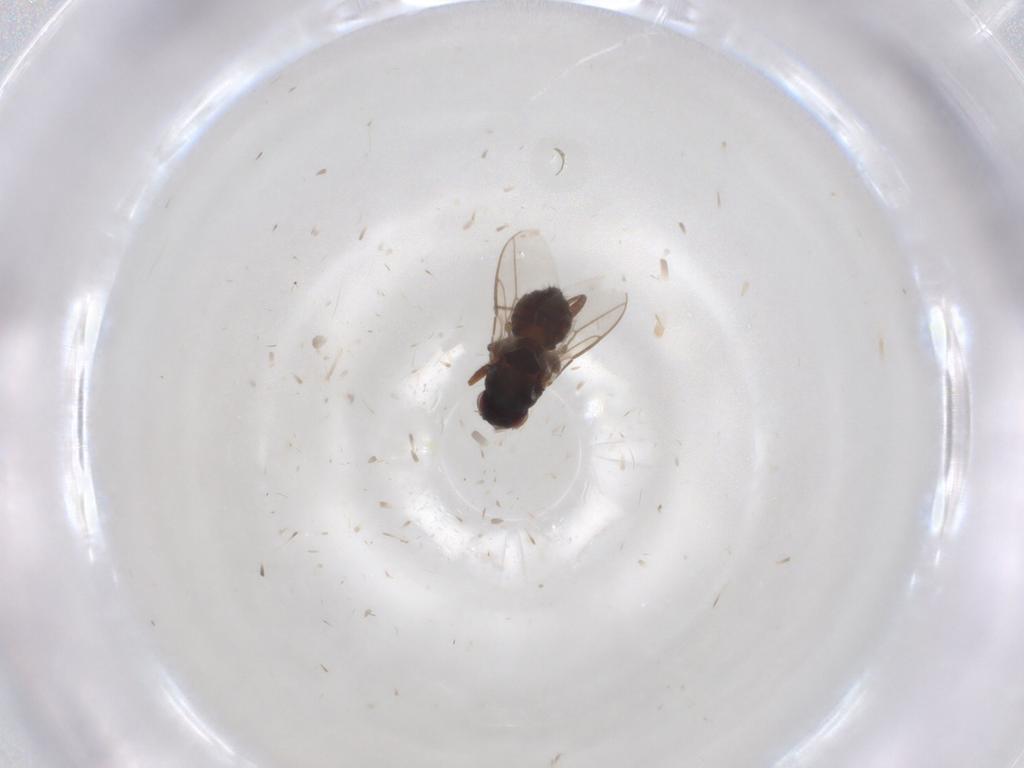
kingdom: Animalia
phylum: Arthropoda
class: Insecta
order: Diptera
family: Sphaeroceridae
